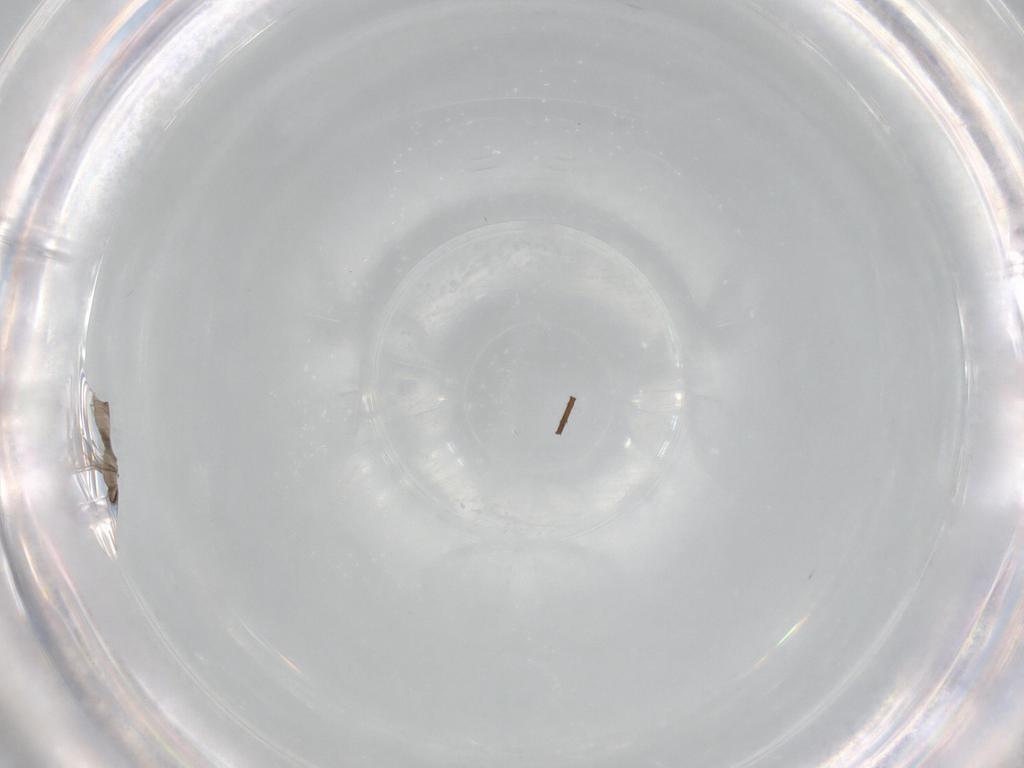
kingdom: Animalia
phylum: Arthropoda
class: Insecta
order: Diptera
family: Cecidomyiidae
